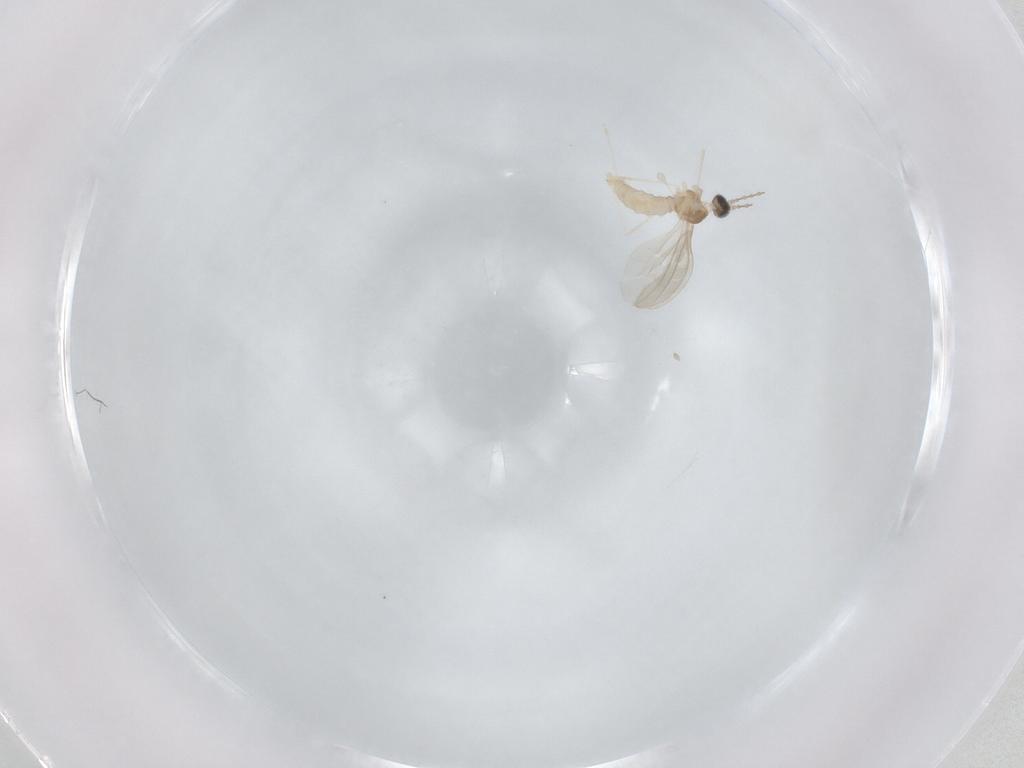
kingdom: Animalia
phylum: Arthropoda
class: Insecta
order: Diptera
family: Cecidomyiidae
